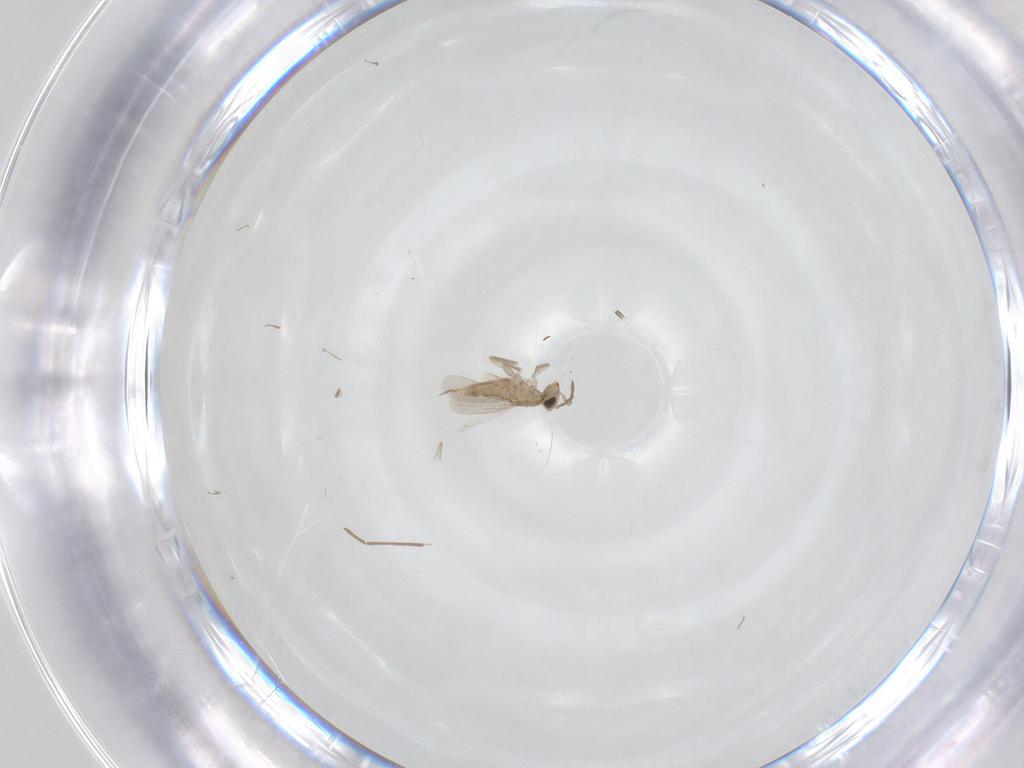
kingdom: Animalia
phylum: Arthropoda
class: Insecta
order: Hymenoptera
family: Aphelinidae
